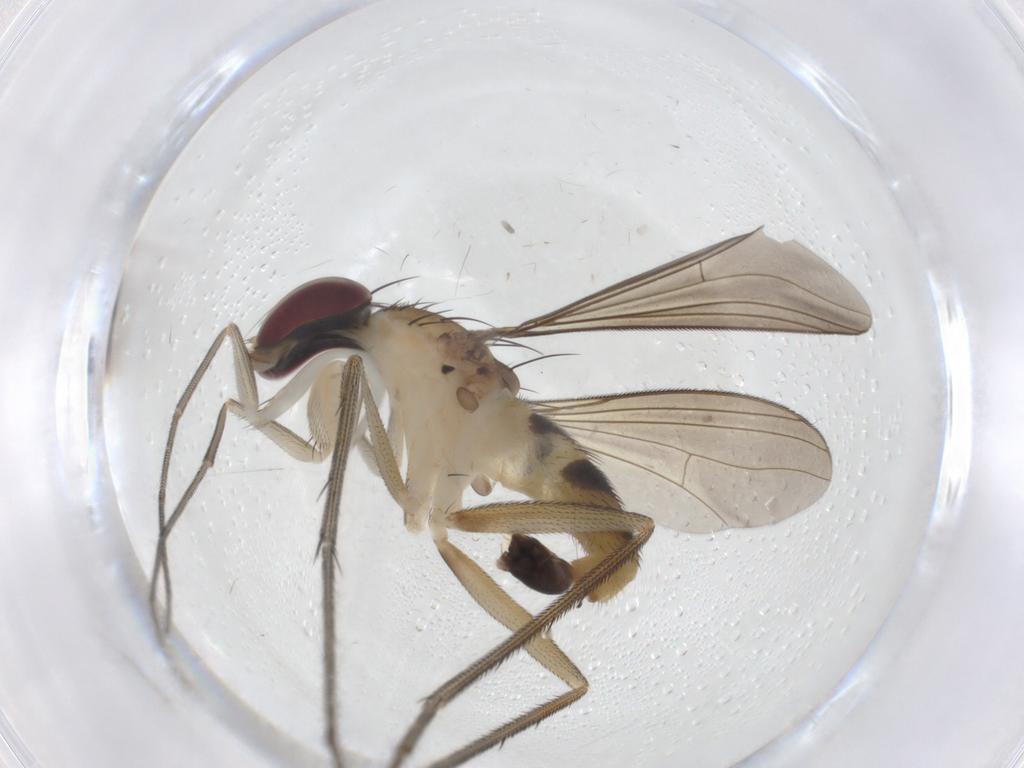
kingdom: Animalia
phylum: Arthropoda
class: Insecta
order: Diptera
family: Dolichopodidae
